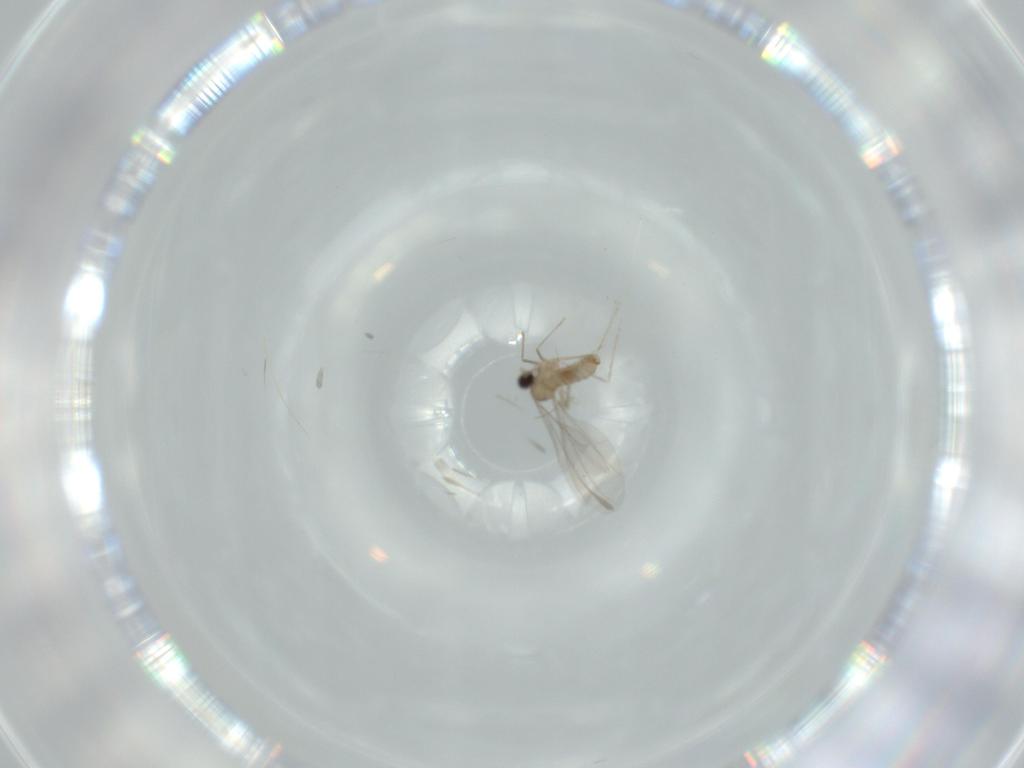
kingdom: Animalia
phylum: Arthropoda
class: Insecta
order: Diptera
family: Cecidomyiidae
